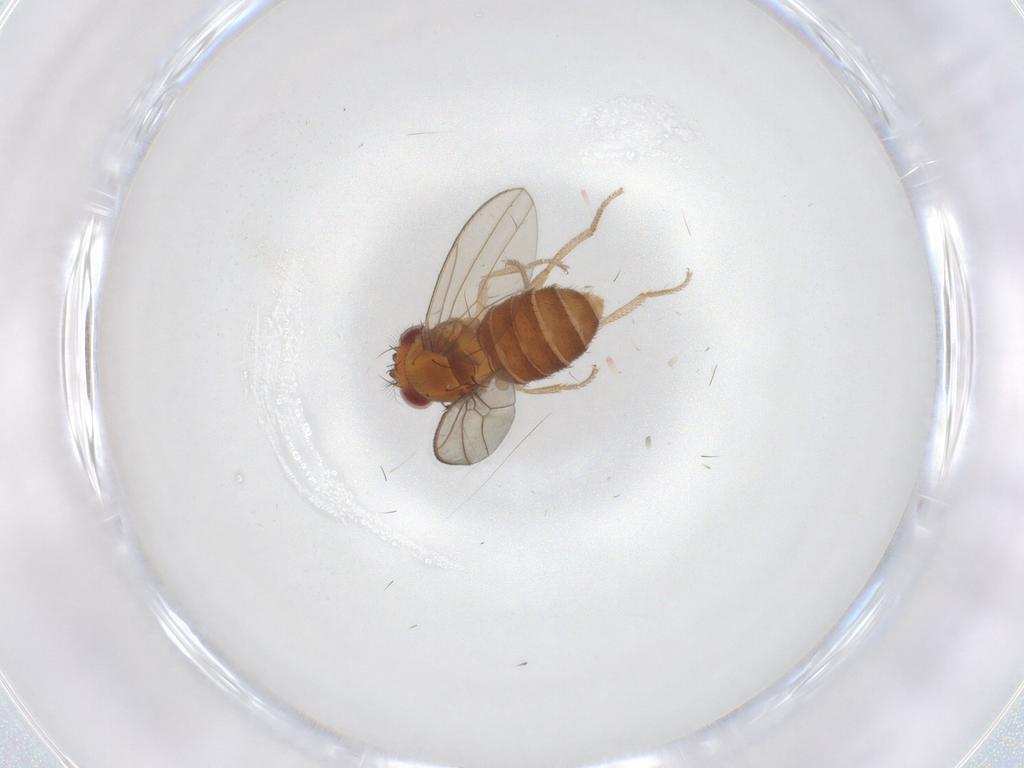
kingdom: Animalia
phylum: Arthropoda
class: Insecta
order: Diptera
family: Drosophilidae
